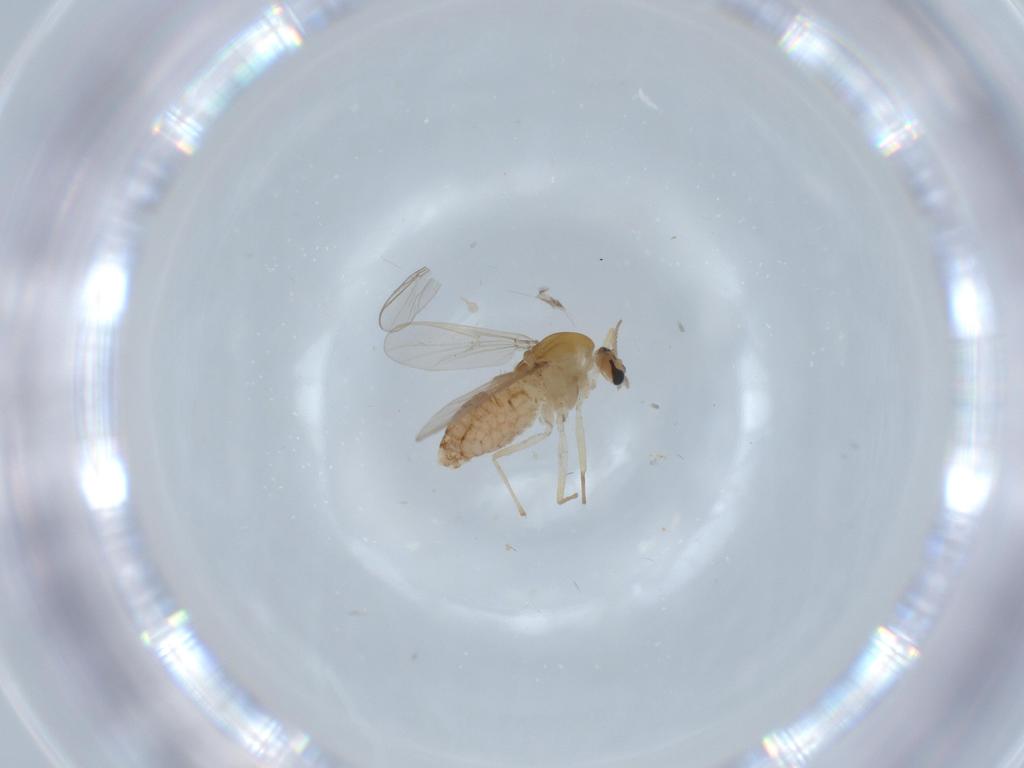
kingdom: Animalia
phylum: Arthropoda
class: Insecta
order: Diptera
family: Chironomidae
